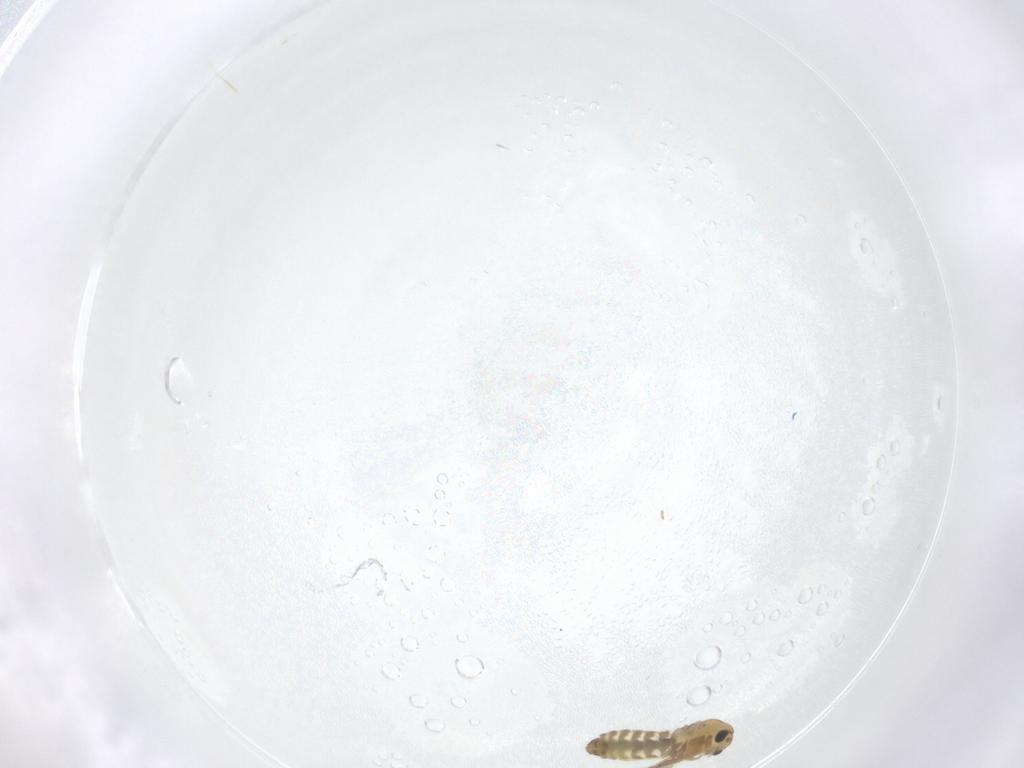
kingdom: Animalia
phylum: Arthropoda
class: Insecta
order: Diptera
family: Chironomidae
